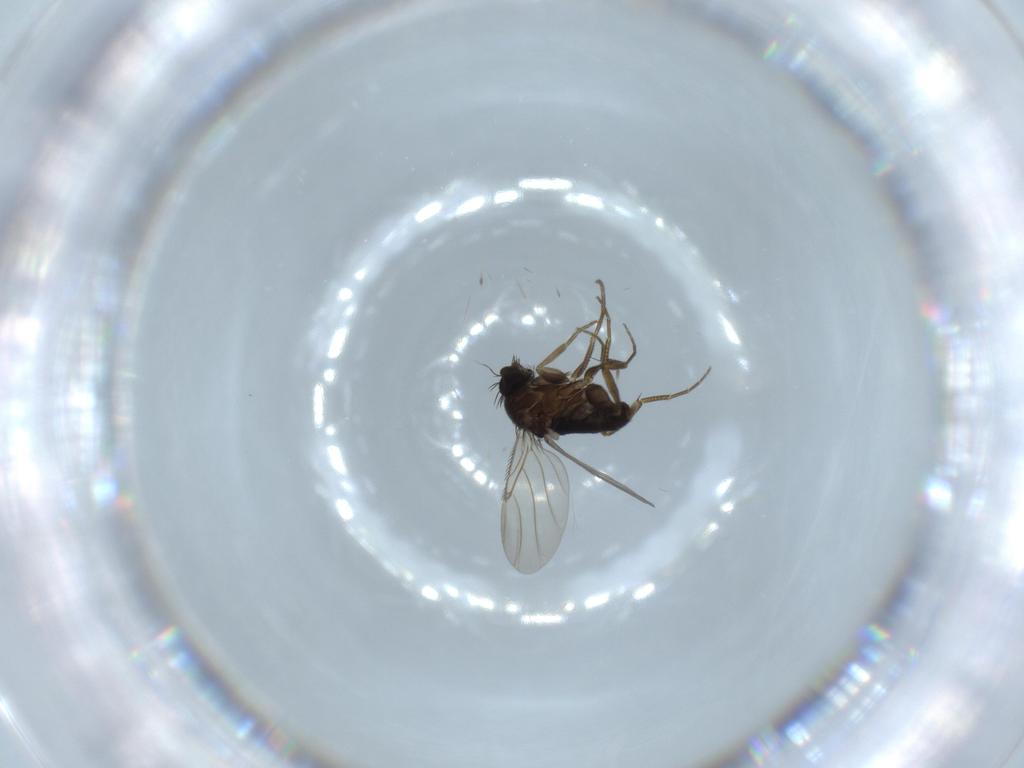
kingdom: Animalia
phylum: Arthropoda
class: Insecta
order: Diptera
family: Phoridae
